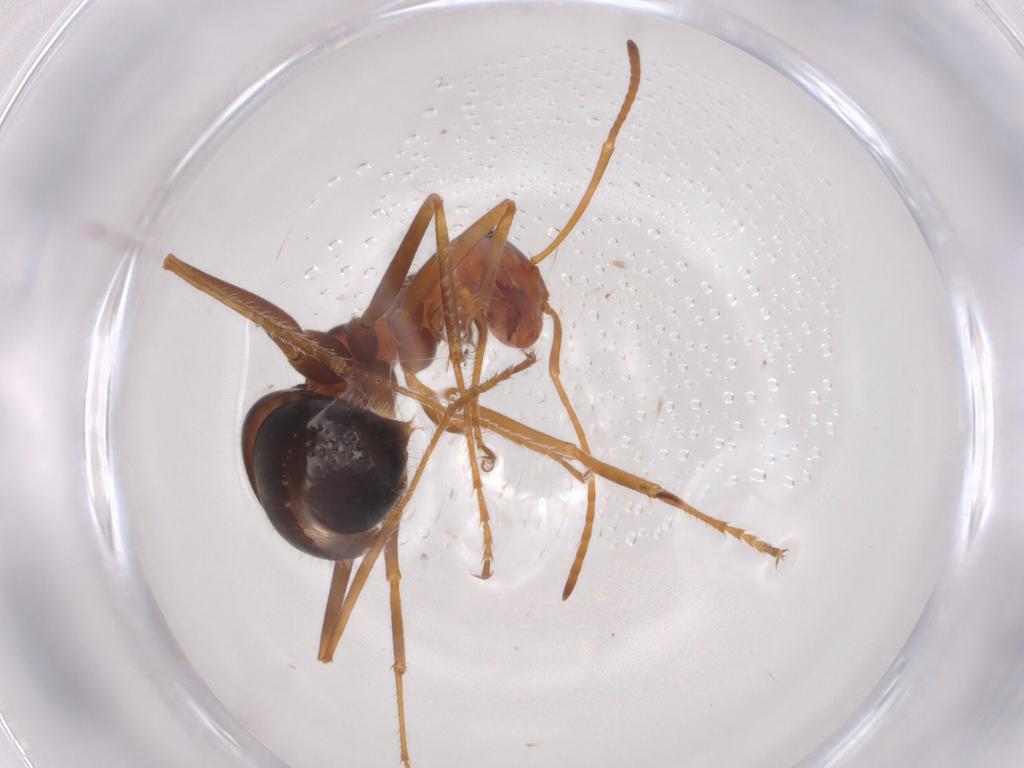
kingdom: Animalia
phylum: Arthropoda
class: Insecta
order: Hymenoptera
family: Formicidae
